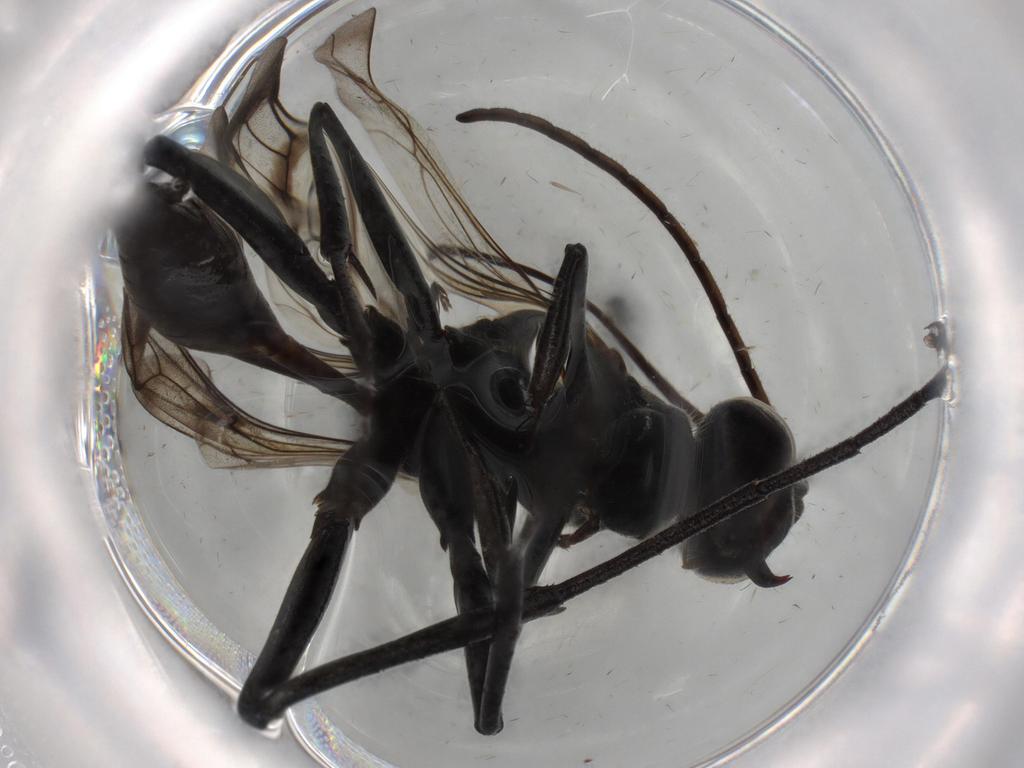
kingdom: Animalia
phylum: Arthropoda
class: Insecta
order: Hymenoptera
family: Pompilidae
